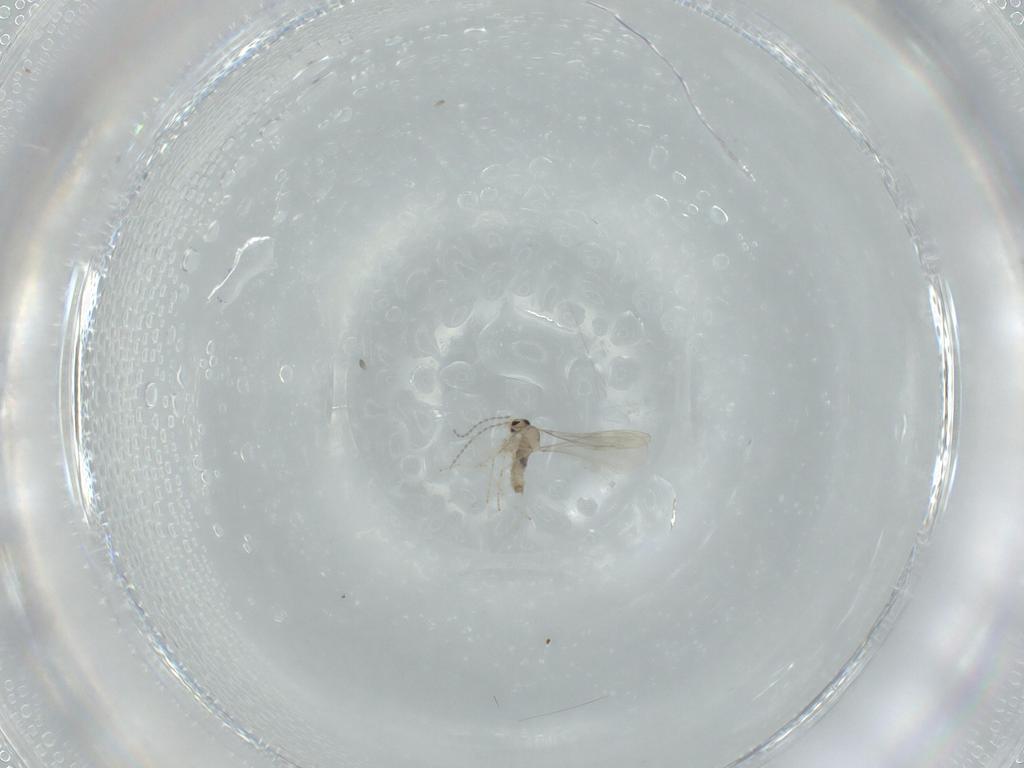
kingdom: Animalia
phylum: Arthropoda
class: Insecta
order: Diptera
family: Cecidomyiidae
